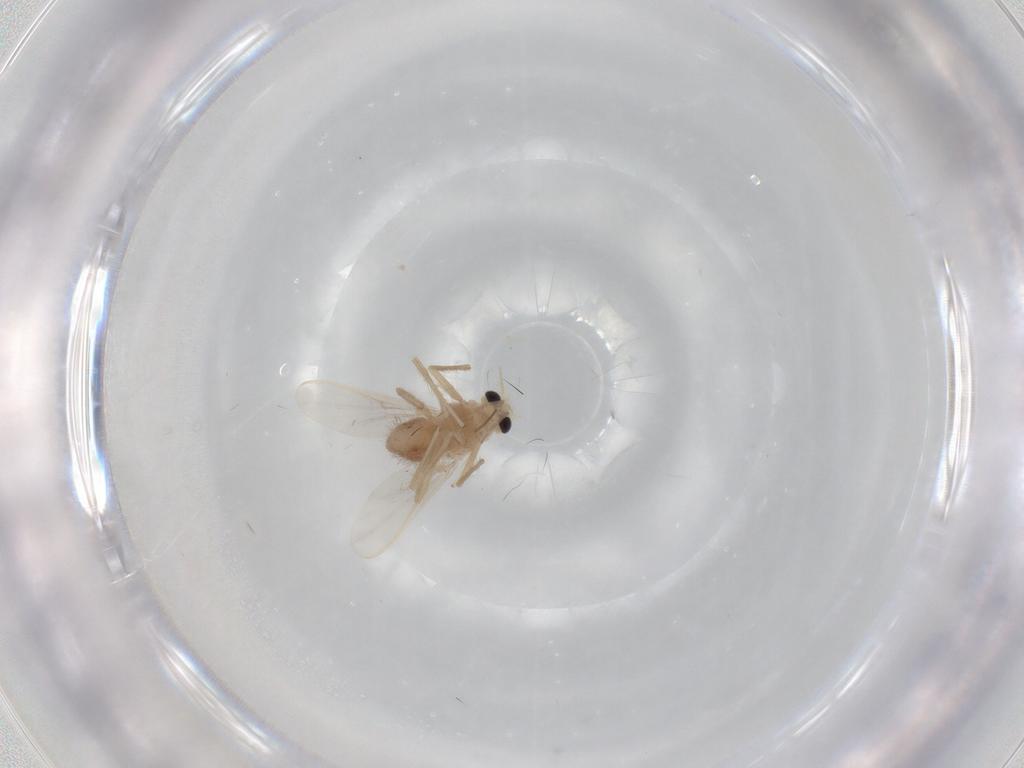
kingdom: Animalia
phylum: Arthropoda
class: Insecta
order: Diptera
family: Chironomidae
